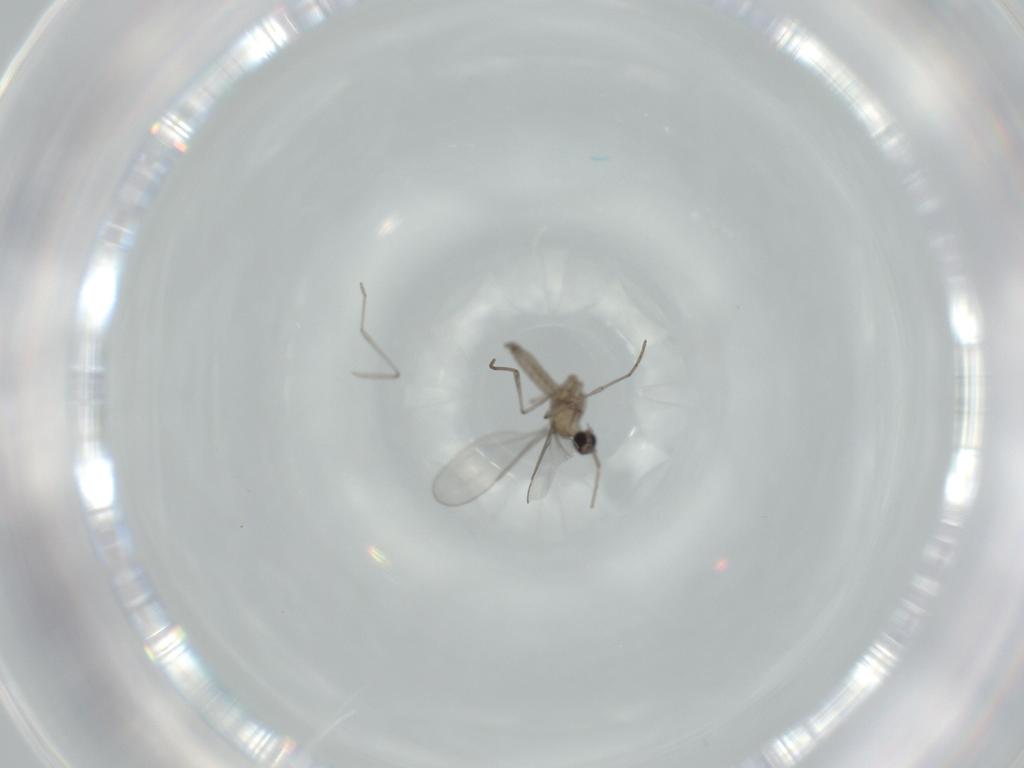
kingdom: Animalia
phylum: Arthropoda
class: Insecta
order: Diptera
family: Cecidomyiidae
